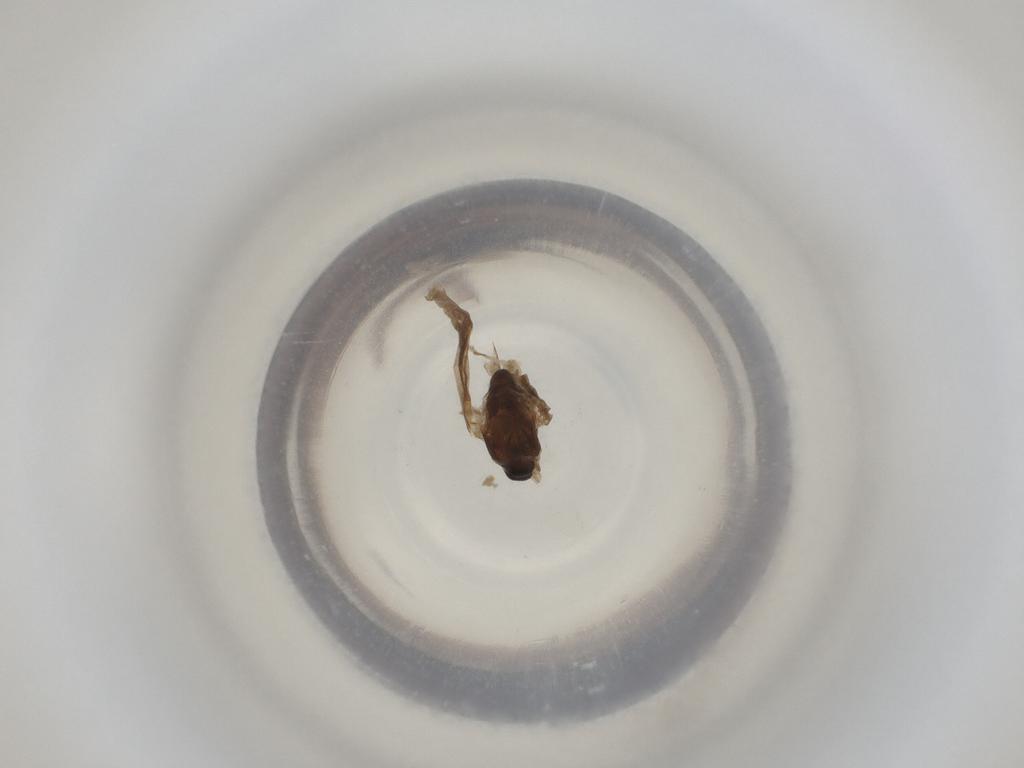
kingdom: Animalia
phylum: Arthropoda
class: Insecta
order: Diptera
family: Cecidomyiidae
